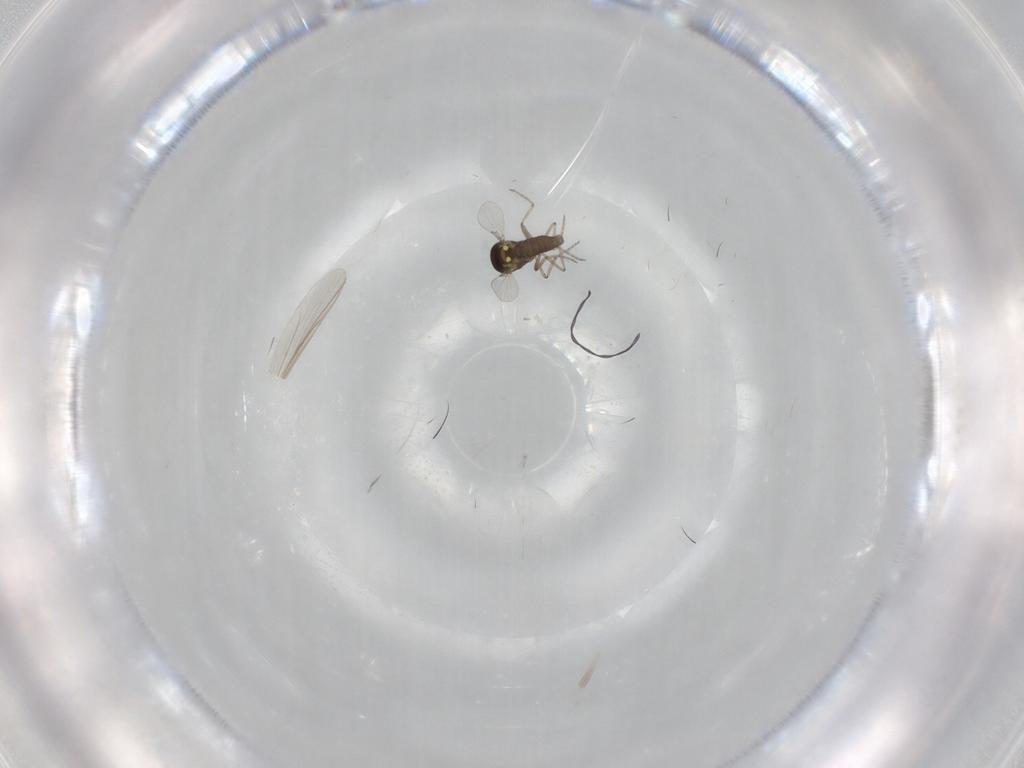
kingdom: Animalia
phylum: Arthropoda
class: Insecta
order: Diptera
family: Ceratopogonidae
